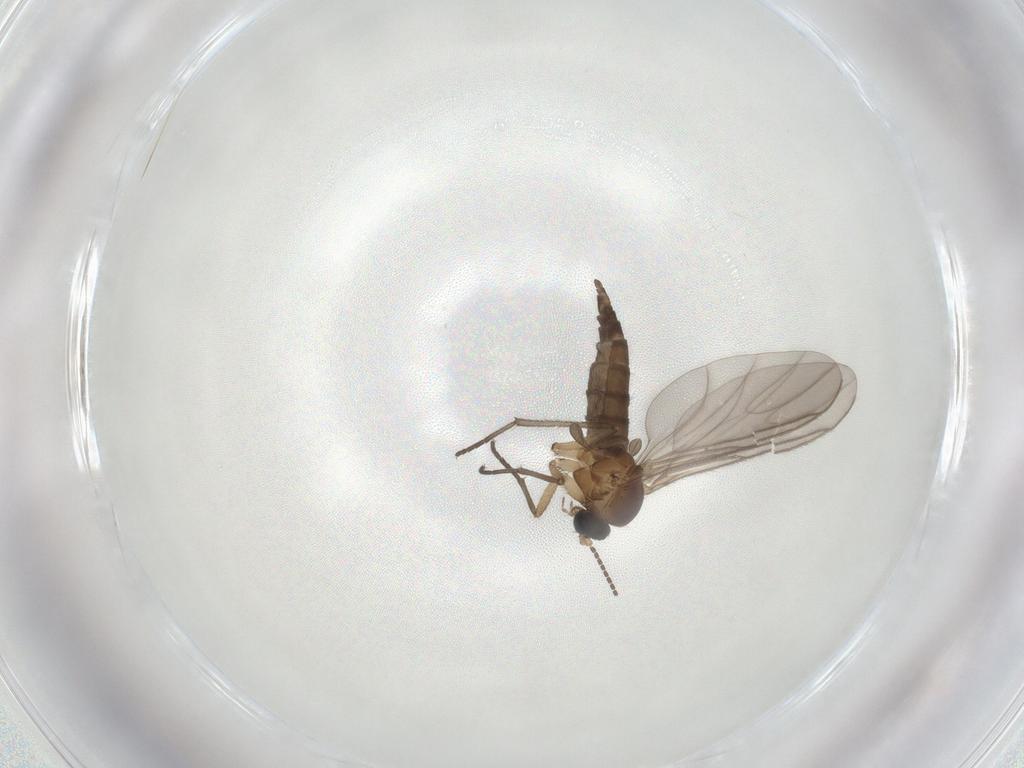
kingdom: Animalia
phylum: Arthropoda
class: Insecta
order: Diptera
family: Sciaridae
